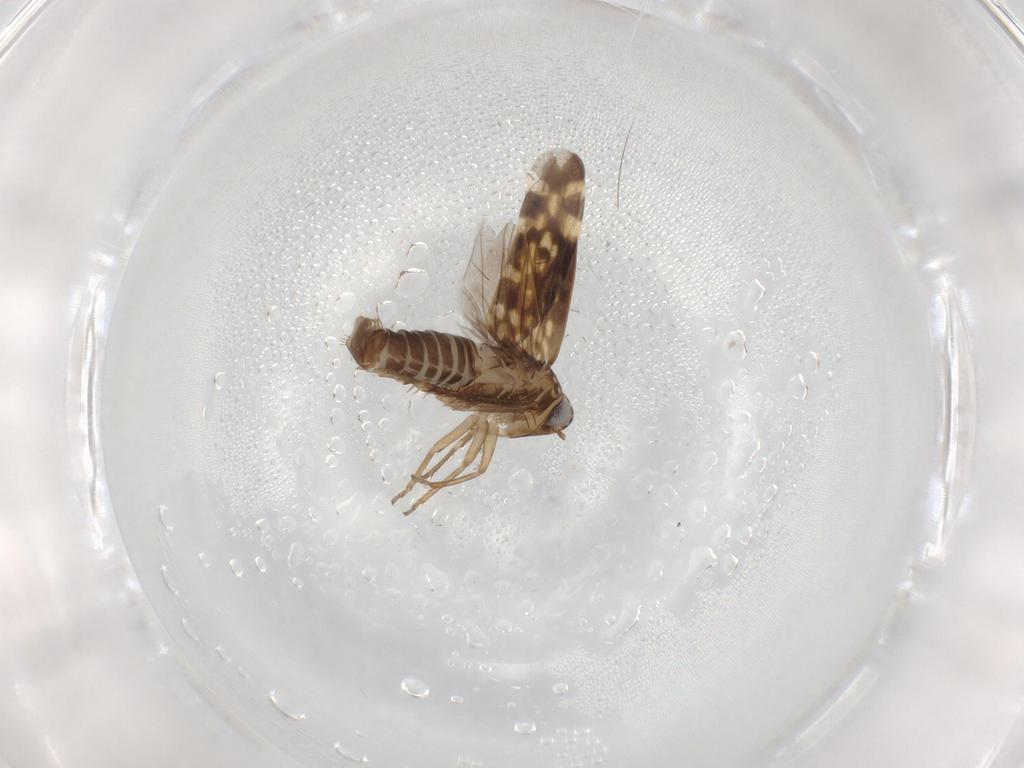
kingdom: Animalia
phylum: Arthropoda
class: Insecta
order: Hemiptera
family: Cicadellidae
